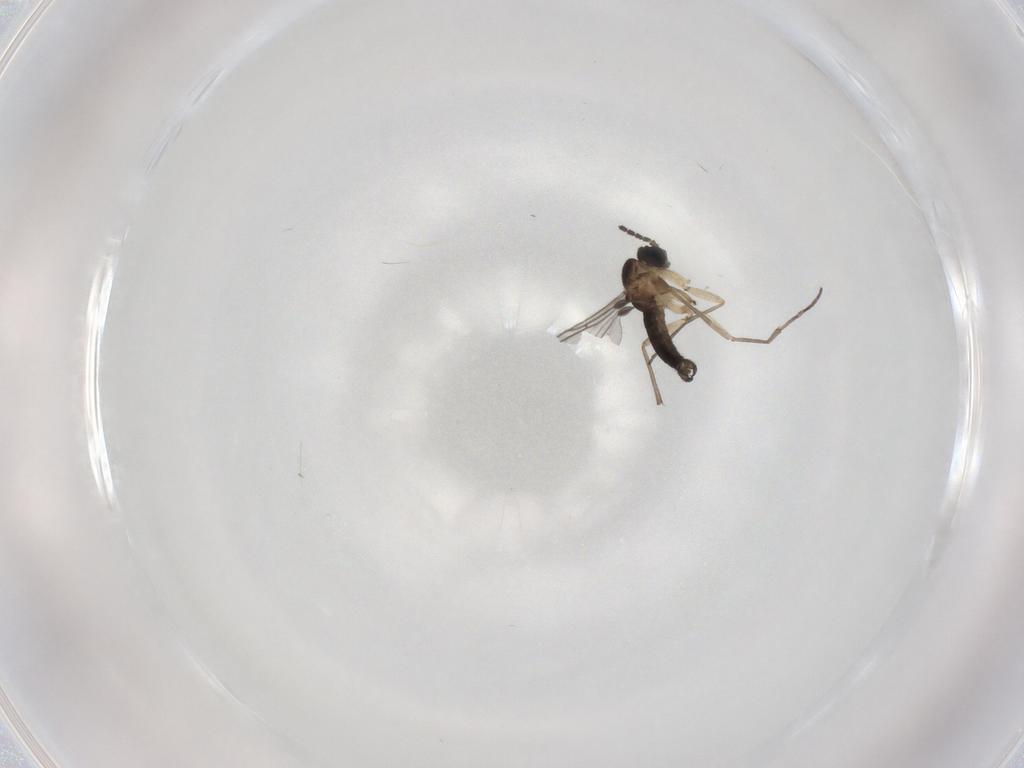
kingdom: Animalia
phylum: Arthropoda
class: Insecta
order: Diptera
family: Sciaridae
